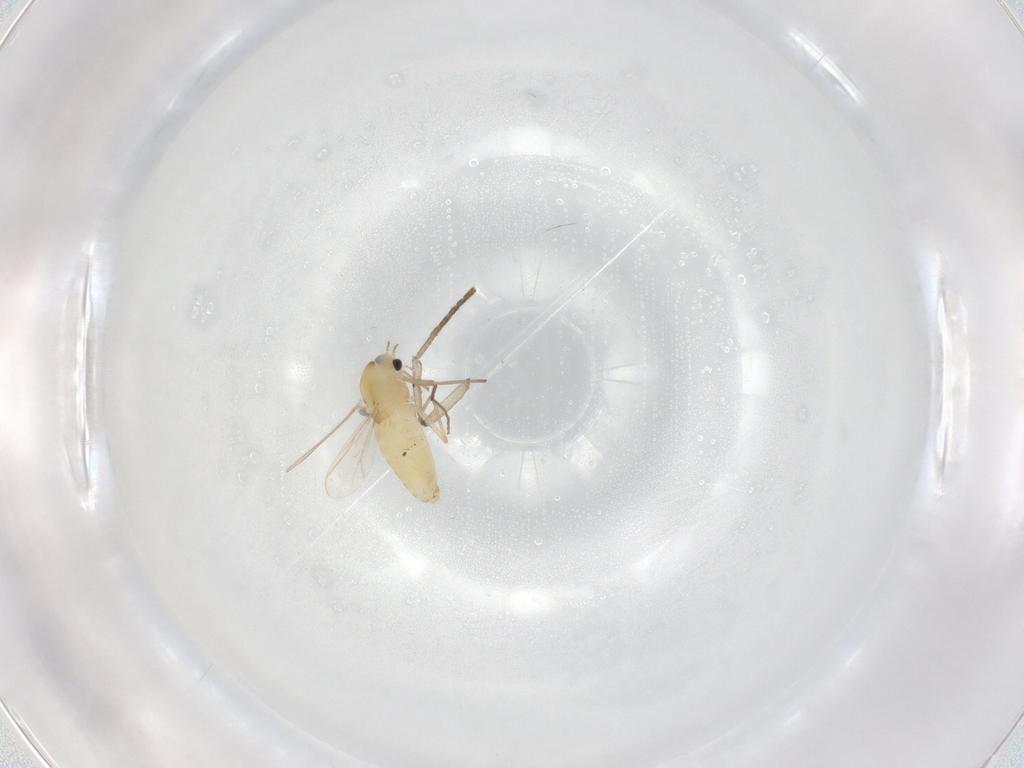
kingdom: Animalia
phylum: Arthropoda
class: Insecta
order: Diptera
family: Chironomidae
